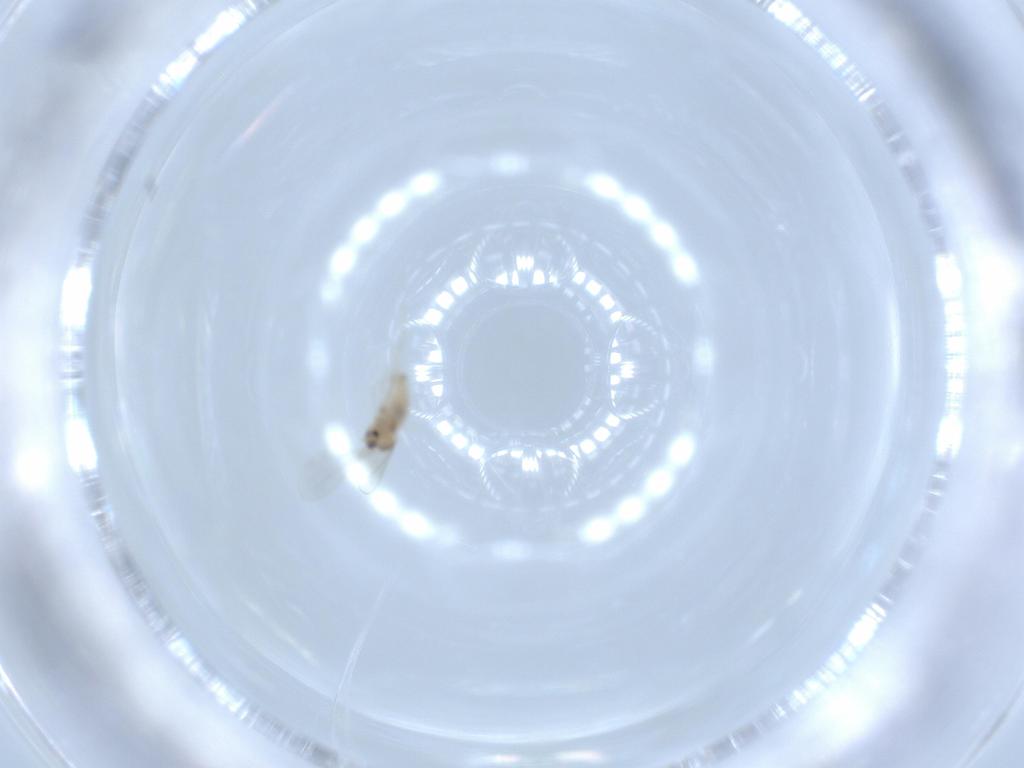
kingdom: Animalia
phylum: Arthropoda
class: Insecta
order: Diptera
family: Cecidomyiidae
